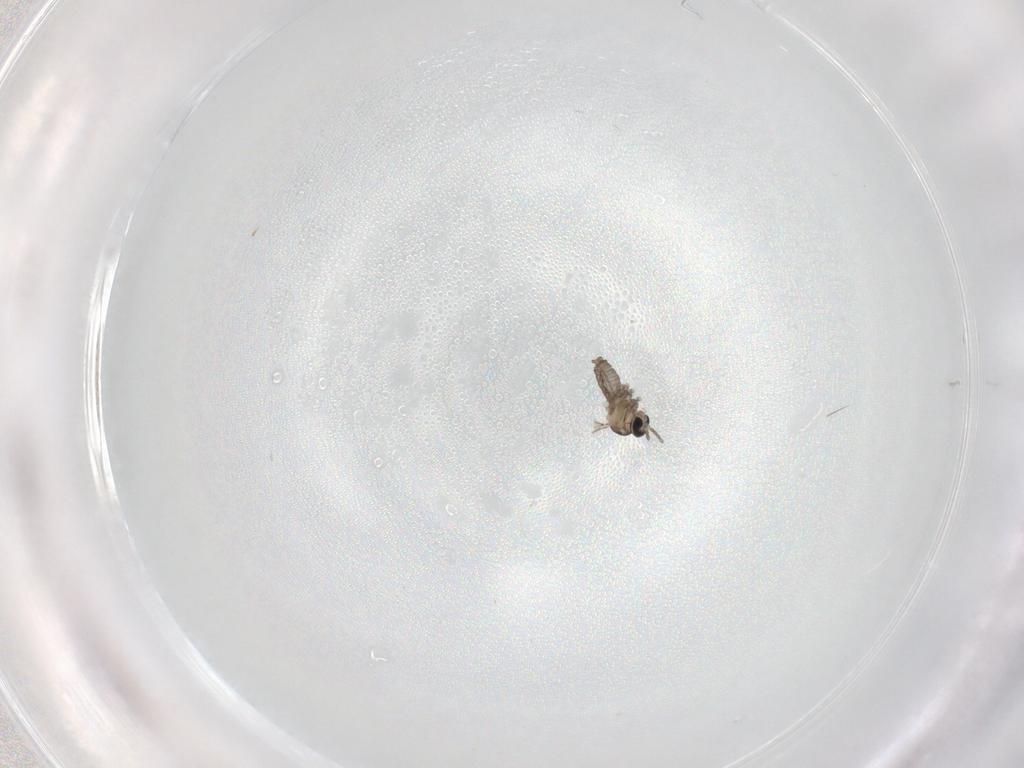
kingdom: Animalia
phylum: Arthropoda
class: Insecta
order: Diptera
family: Cecidomyiidae
